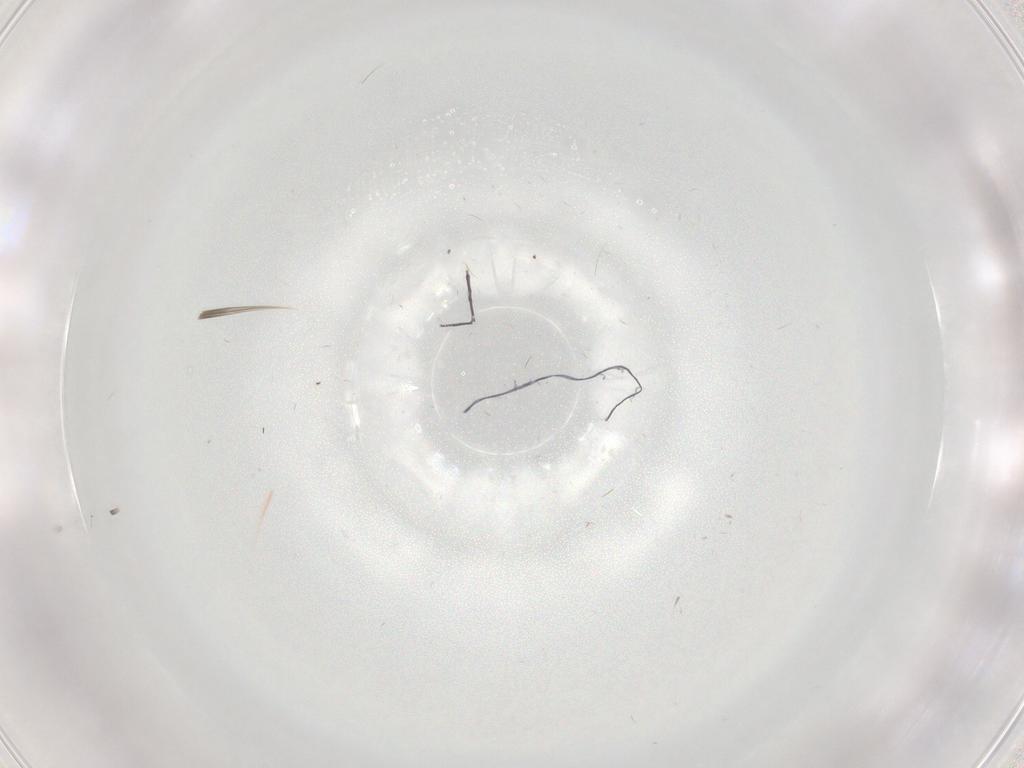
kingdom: Animalia
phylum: Arthropoda
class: Insecta
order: Diptera
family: Chironomidae
